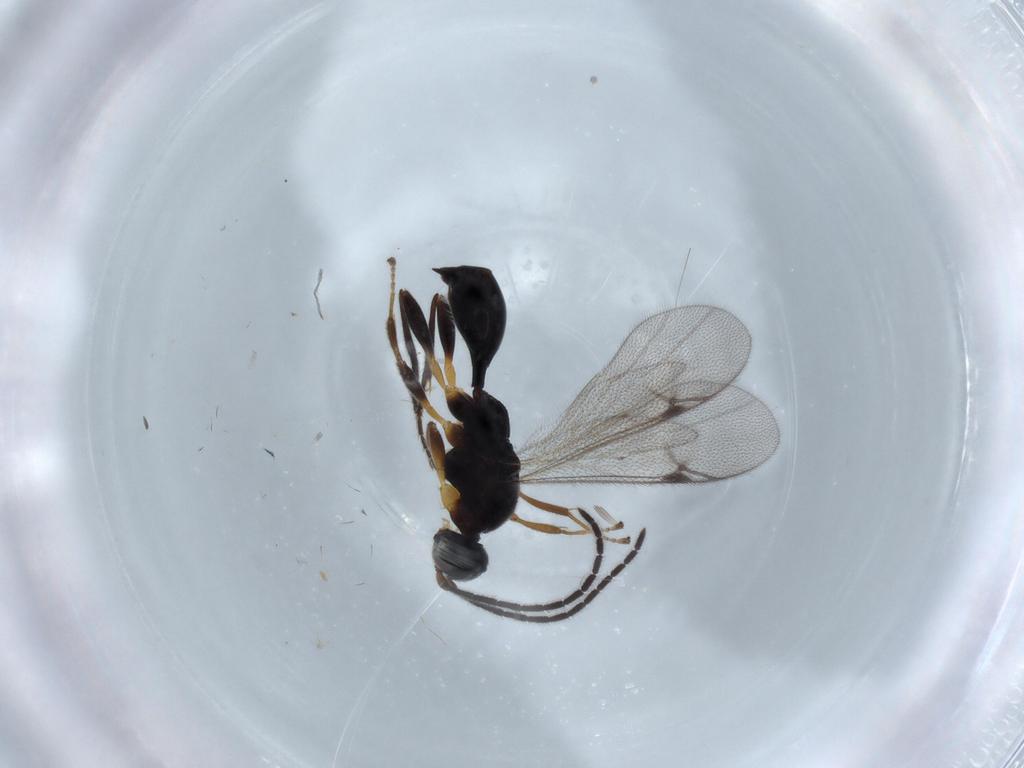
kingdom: Animalia
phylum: Arthropoda
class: Insecta
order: Hymenoptera
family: Proctotrupidae
